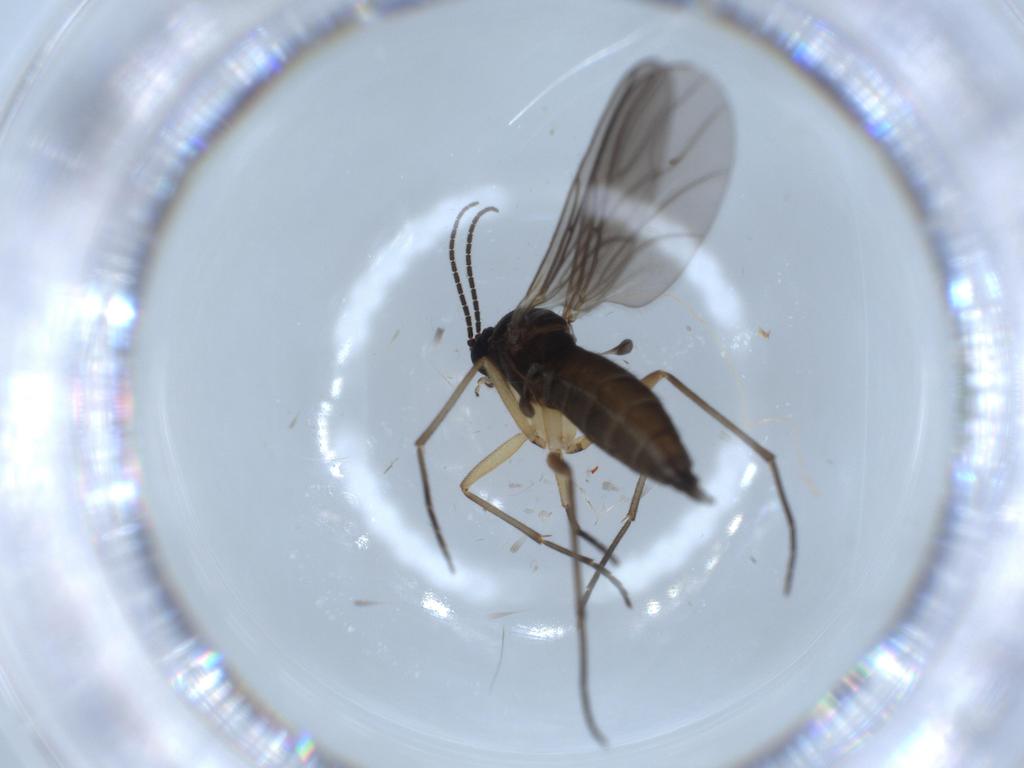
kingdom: Animalia
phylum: Arthropoda
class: Insecta
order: Diptera
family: Sciaridae
